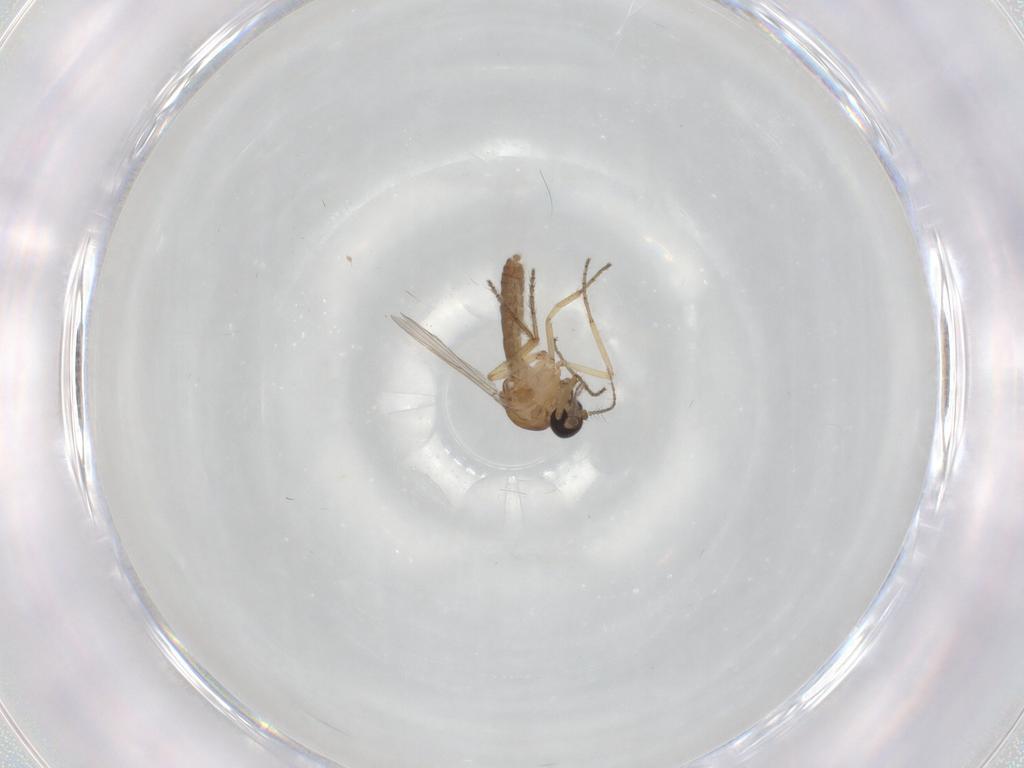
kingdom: Animalia
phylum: Arthropoda
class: Insecta
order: Diptera
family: Ceratopogonidae
